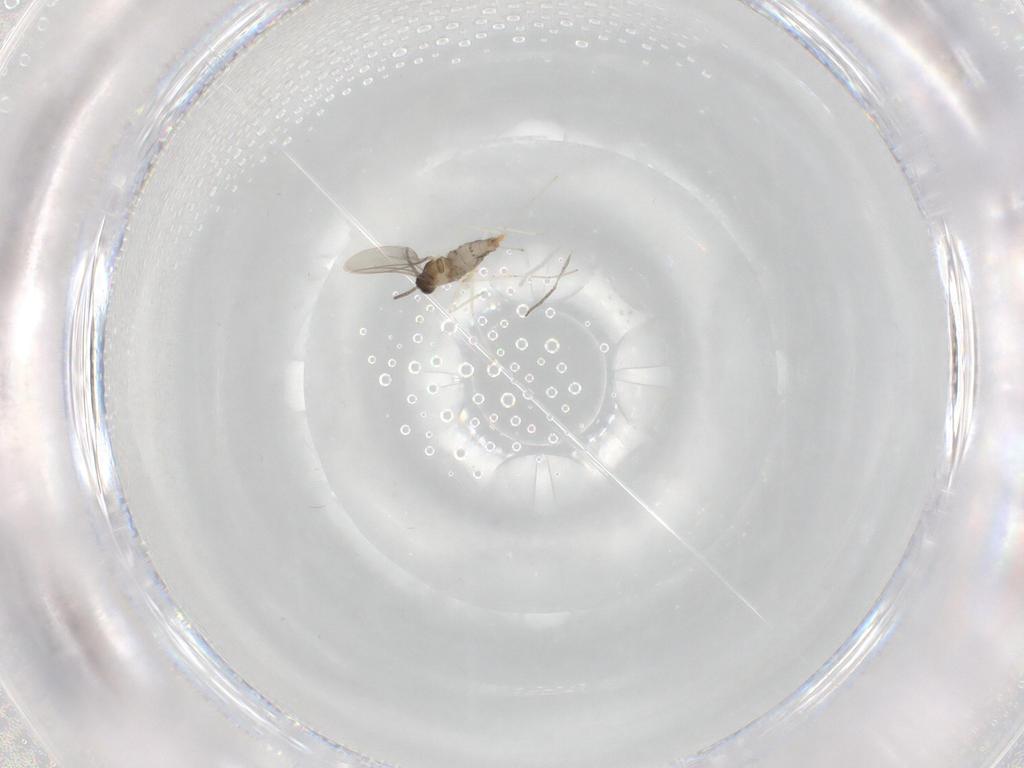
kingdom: Animalia
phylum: Arthropoda
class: Insecta
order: Diptera
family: Cecidomyiidae
